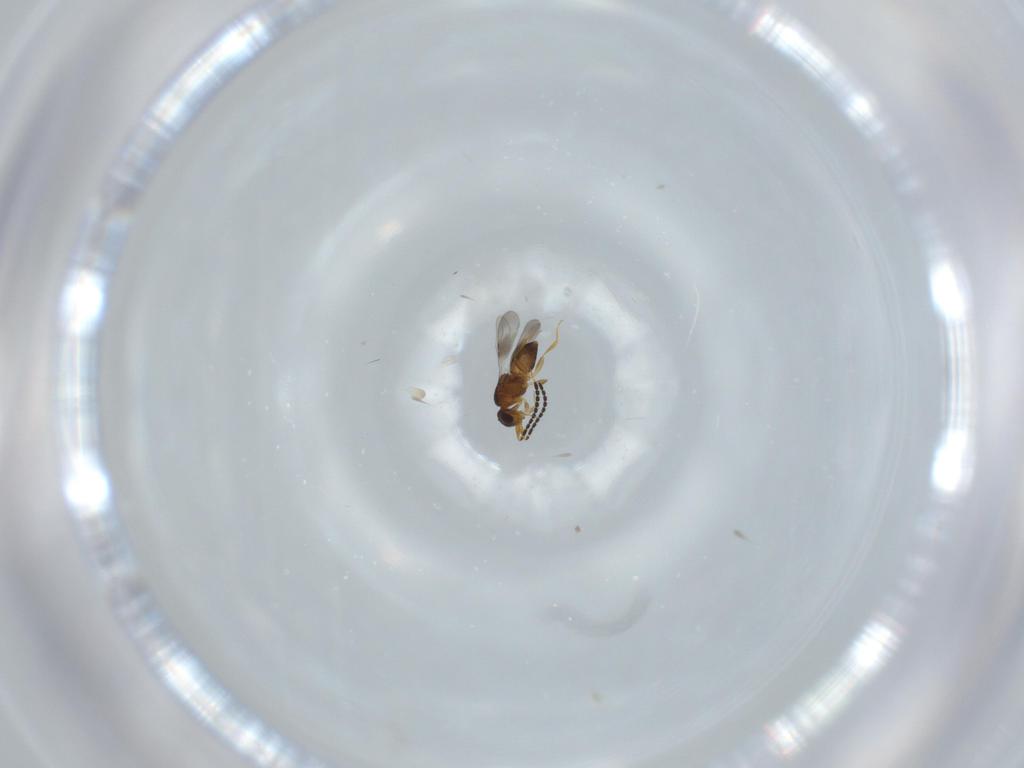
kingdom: Animalia
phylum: Arthropoda
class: Insecta
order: Hymenoptera
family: Ceraphronidae
